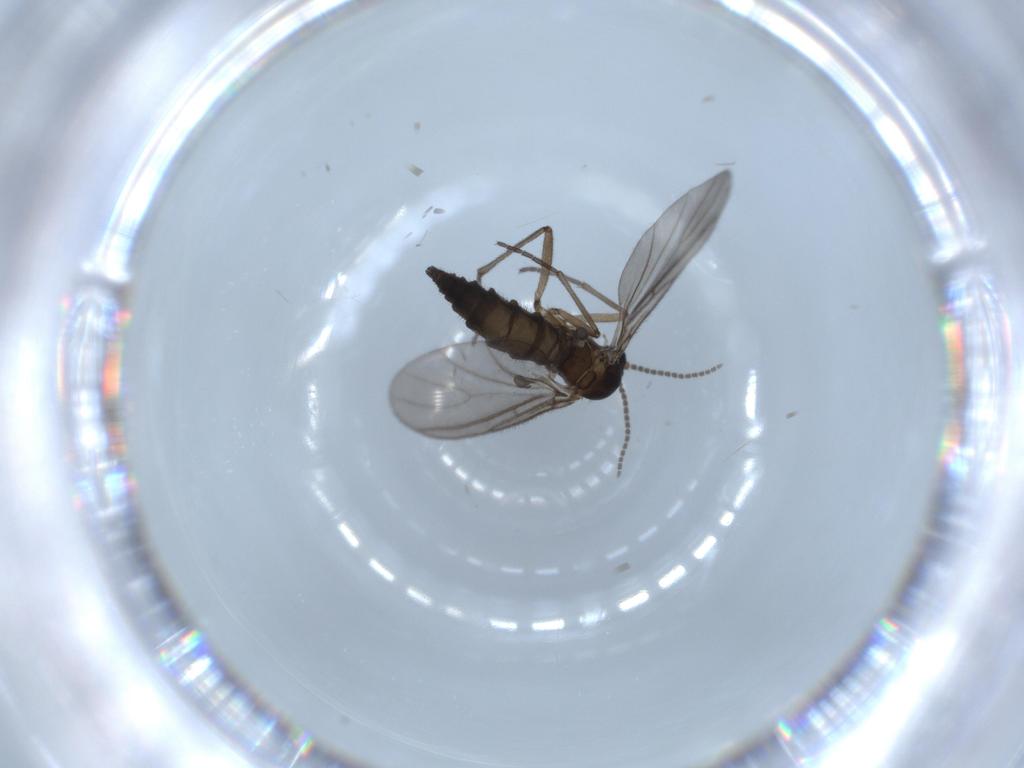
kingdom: Animalia
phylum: Arthropoda
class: Insecta
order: Diptera
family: Sciaridae
